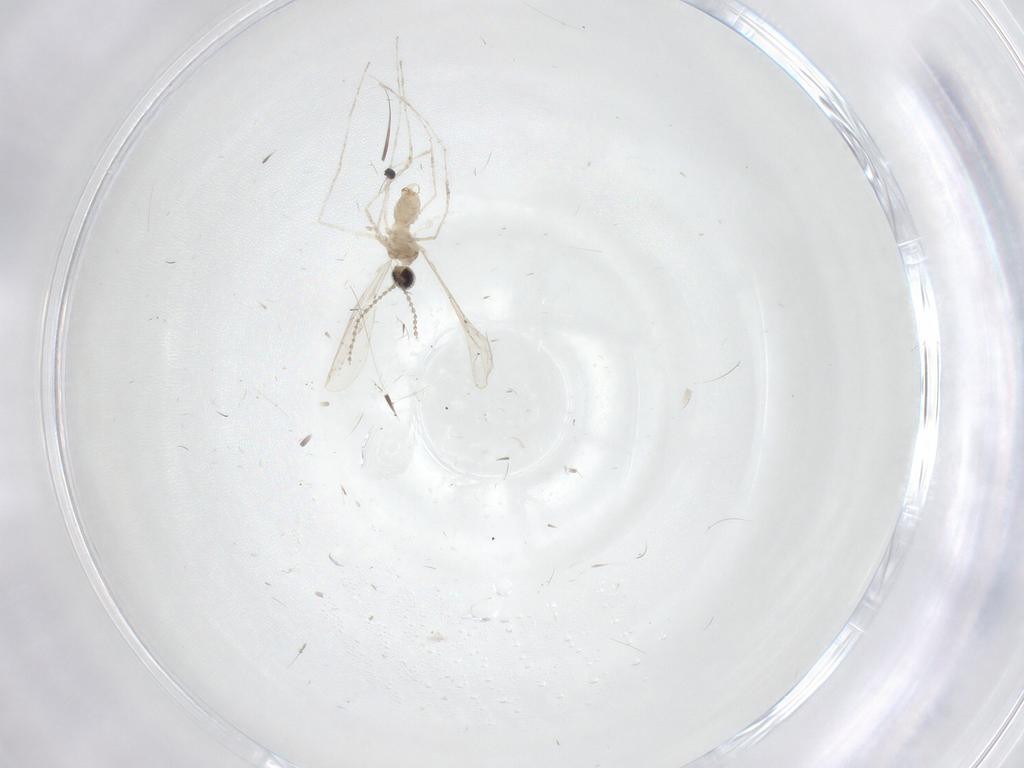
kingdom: Animalia
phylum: Arthropoda
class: Insecta
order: Diptera
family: Limoniidae
